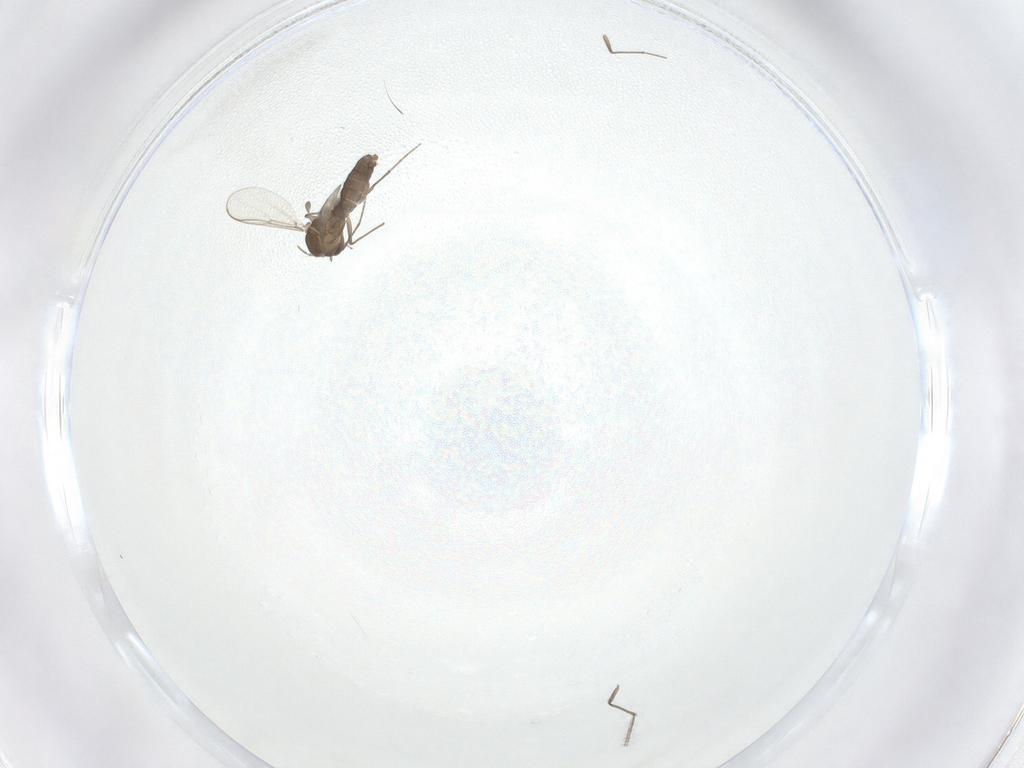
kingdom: Animalia
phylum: Arthropoda
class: Insecta
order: Diptera
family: Chironomidae
